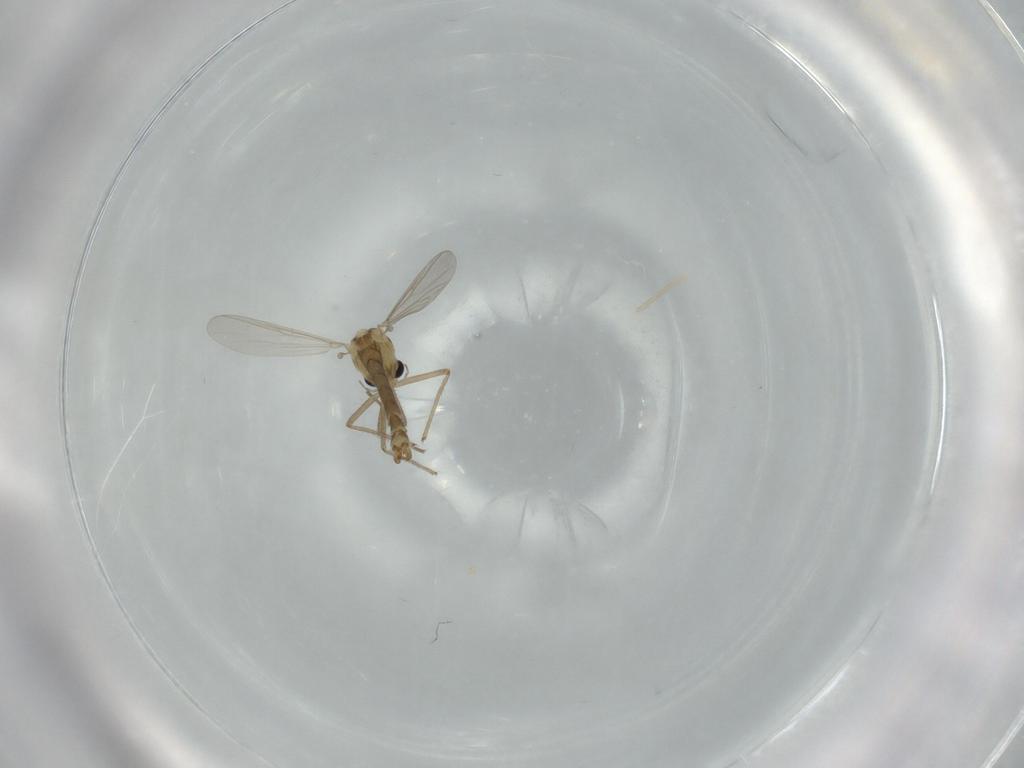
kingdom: Animalia
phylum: Arthropoda
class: Insecta
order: Diptera
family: Chironomidae
